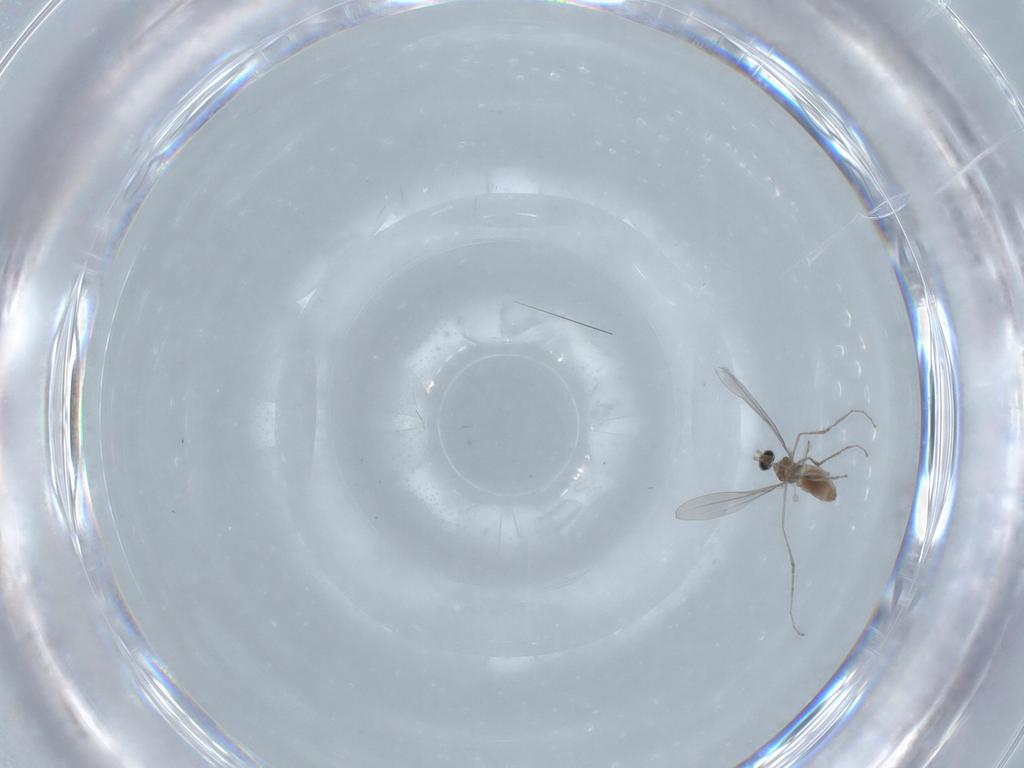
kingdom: Animalia
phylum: Arthropoda
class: Insecta
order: Diptera
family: Cecidomyiidae
